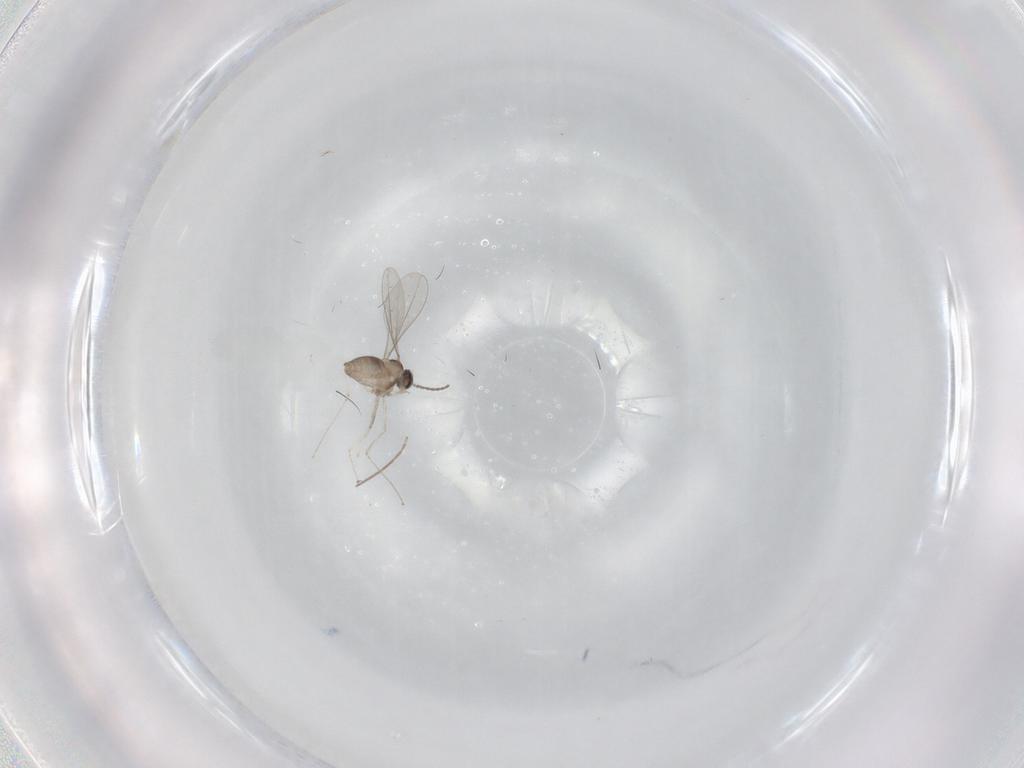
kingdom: Animalia
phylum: Arthropoda
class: Insecta
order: Diptera
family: Cecidomyiidae
